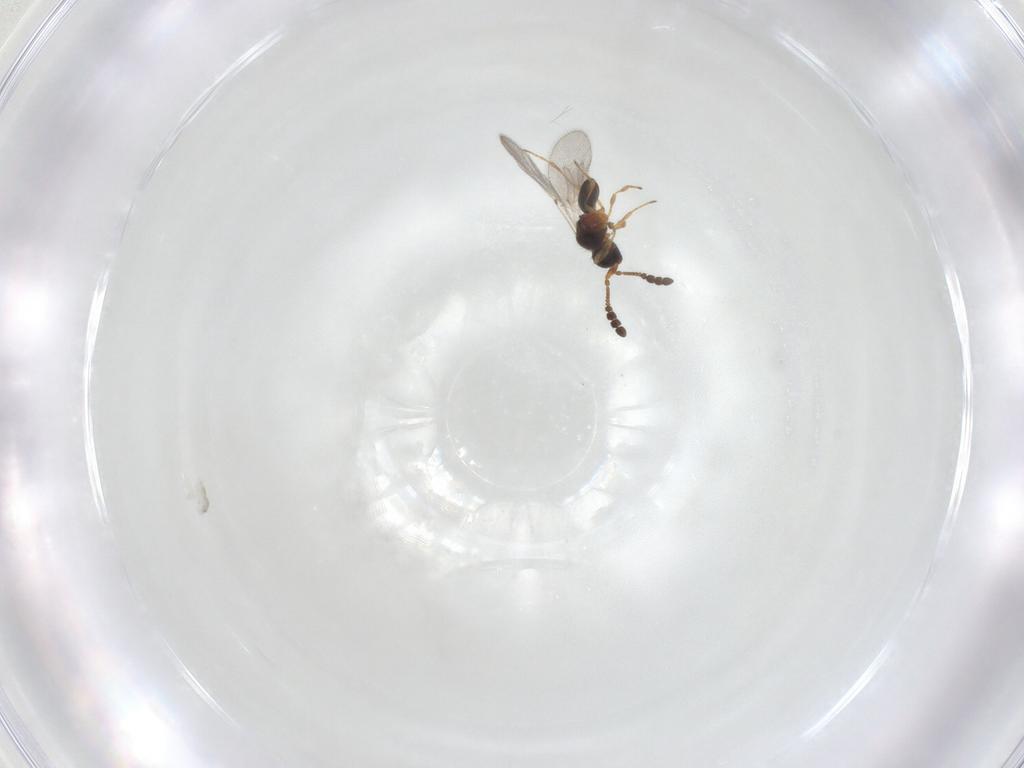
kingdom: Animalia
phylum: Arthropoda
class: Insecta
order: Hymenoptera
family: Diapriidae
